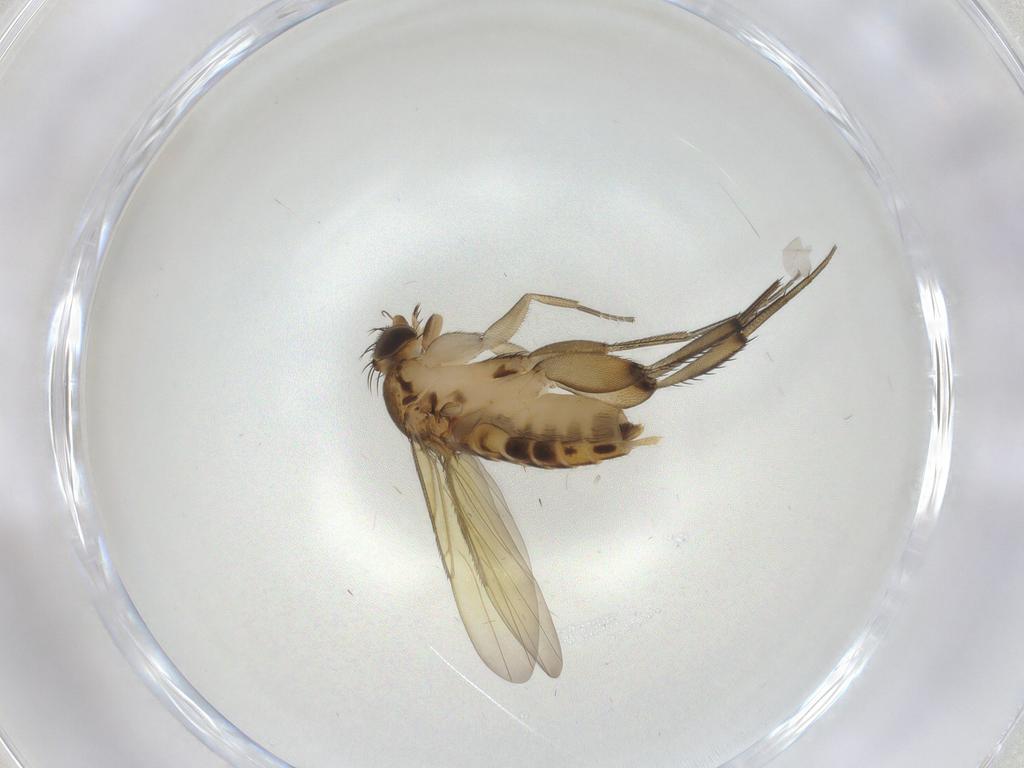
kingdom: Animalia
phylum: Arthropoda
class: Insecta
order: Diptera
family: Phoridae
